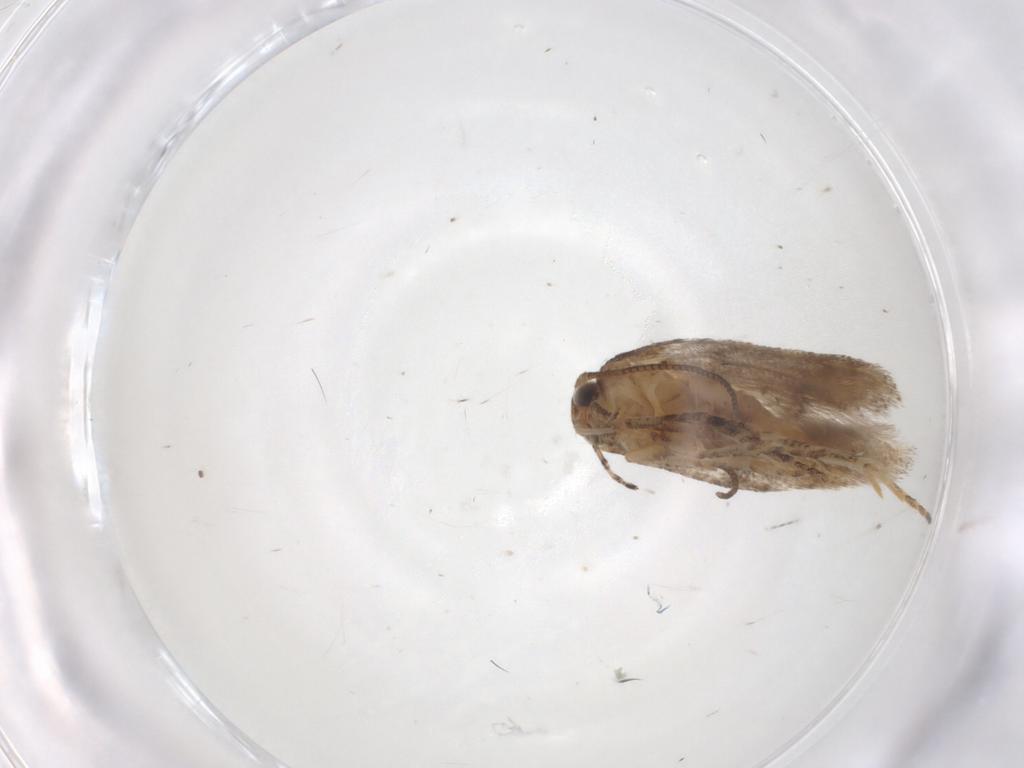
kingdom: Animalia
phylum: Arthropoda
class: Insecta
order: Lepidoptera
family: Gelechiidae
